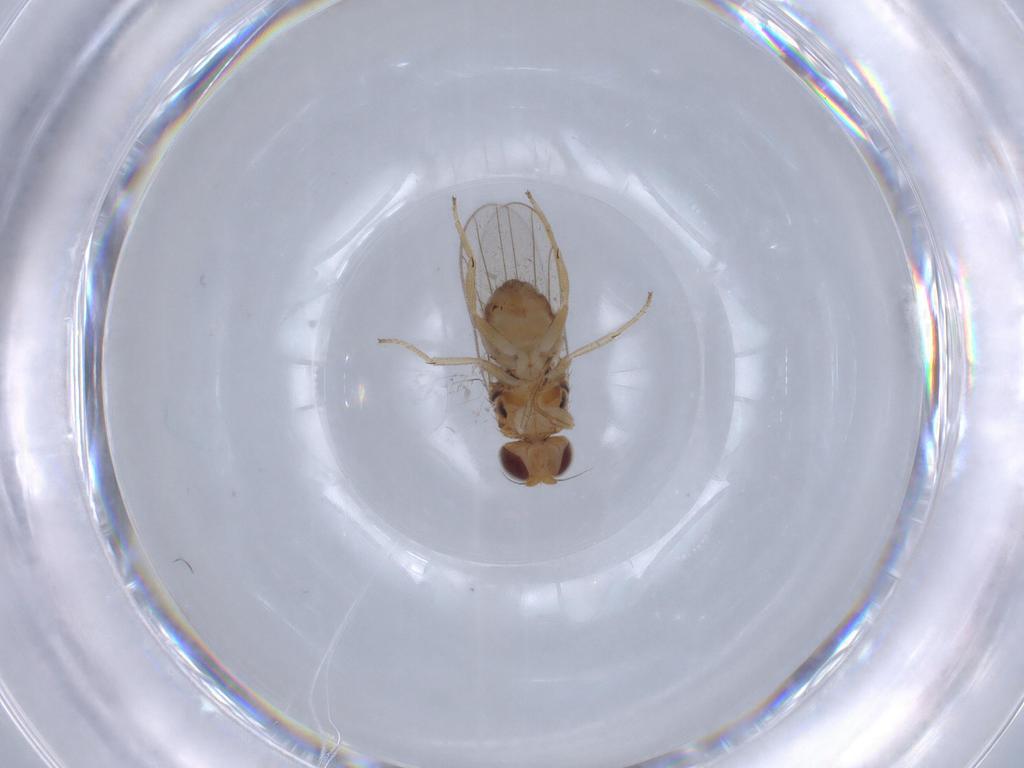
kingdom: Animalia
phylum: Arthropoda
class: Insecta
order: Diptera
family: Chloropidae
